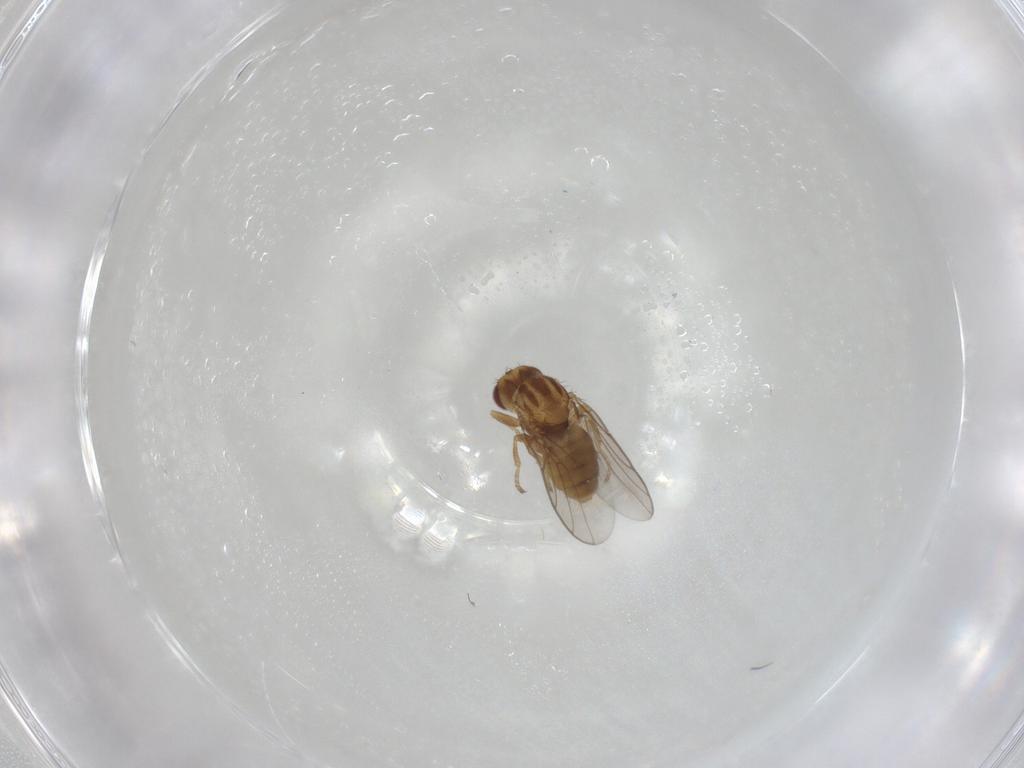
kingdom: Animalia
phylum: Arthropoda
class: Insecta
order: Diptera
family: Chloropidae
